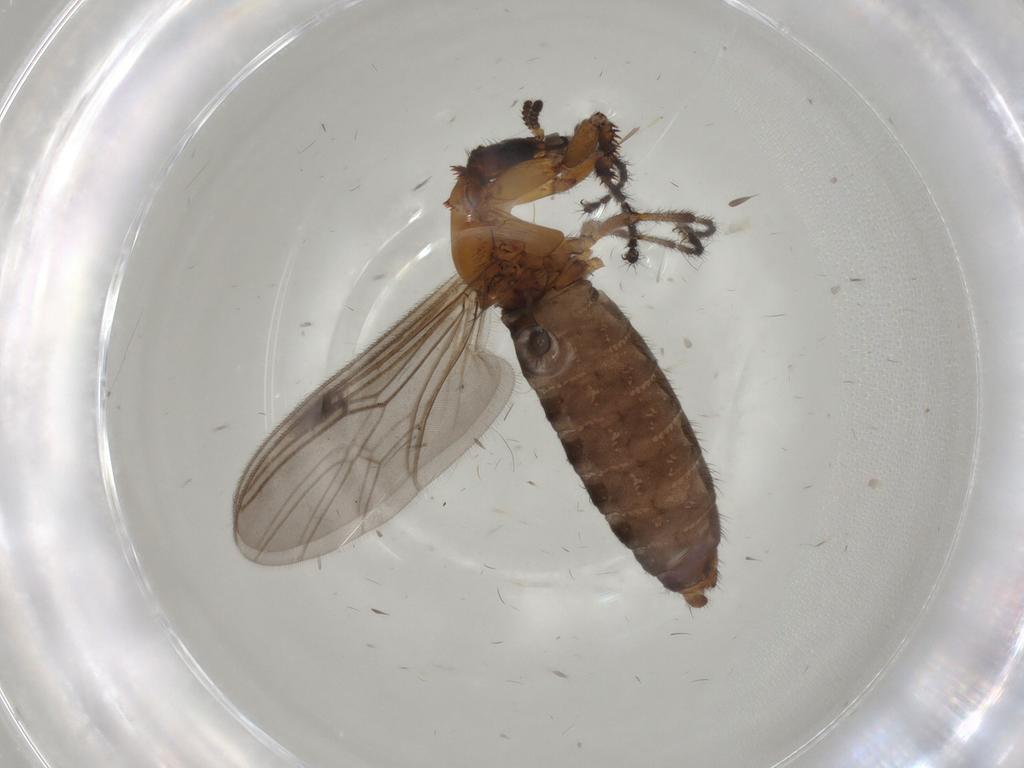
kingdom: Animalia
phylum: Arthropoda
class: Insecta
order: Diptera
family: Bibionidae
